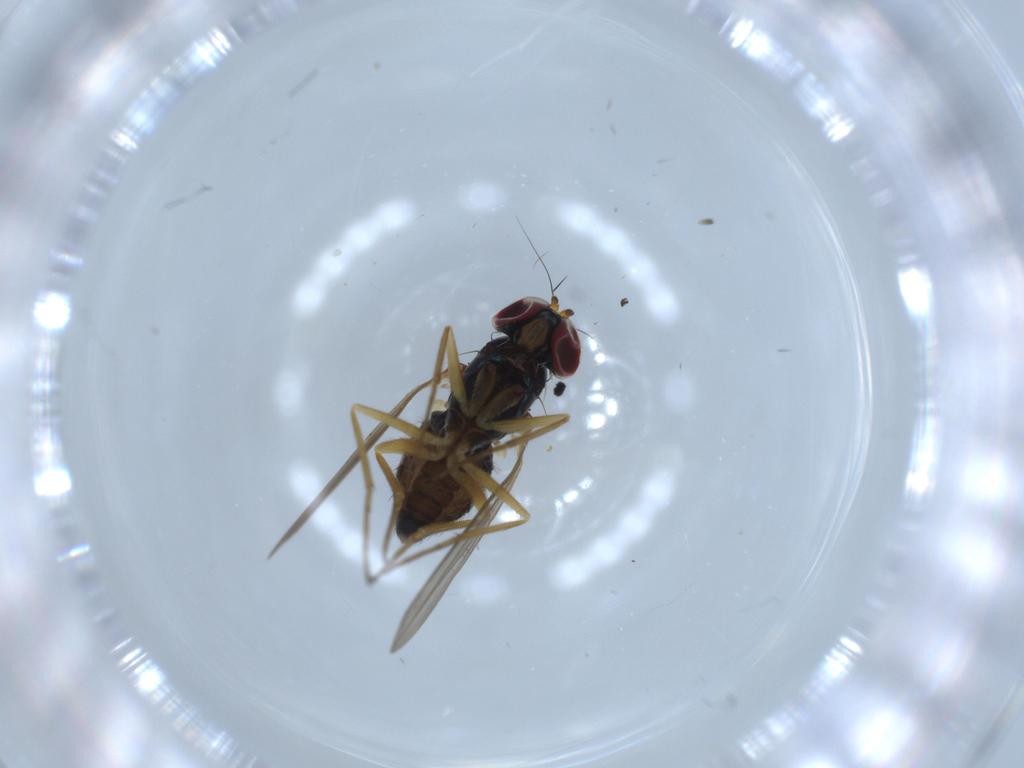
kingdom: Animalia
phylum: Arthropoda
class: Insecta
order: Diptera
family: Dolichopodidae
